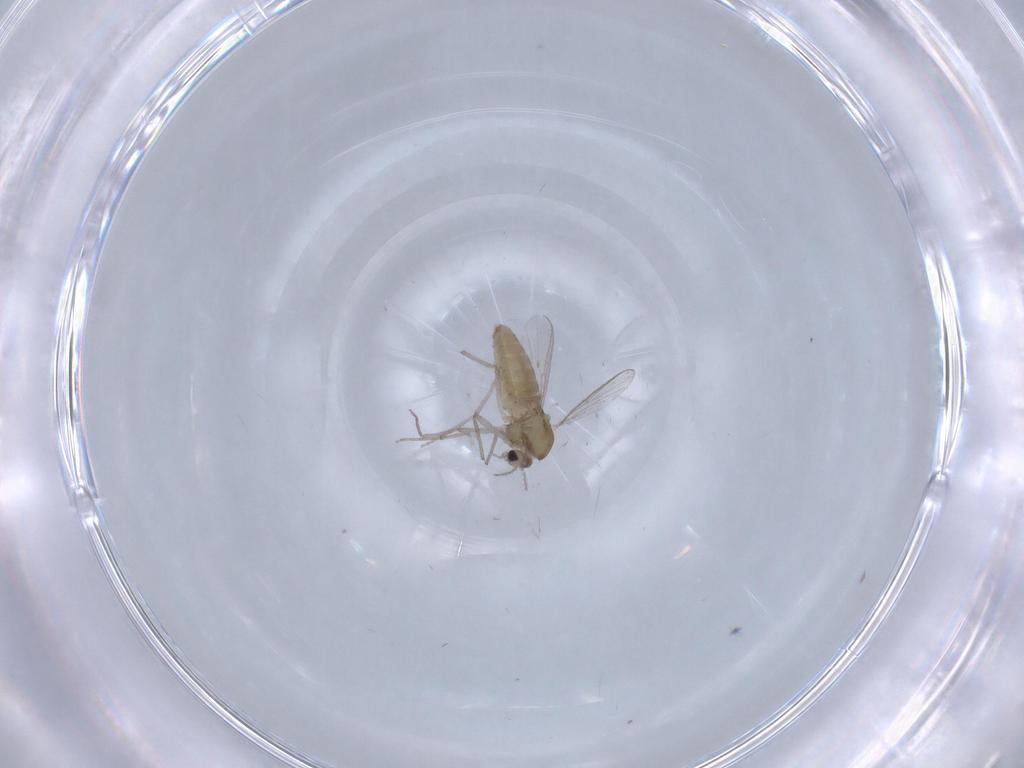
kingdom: Animalia
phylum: Arthropoda
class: Insecta
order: Diptera
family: Chironomidae
